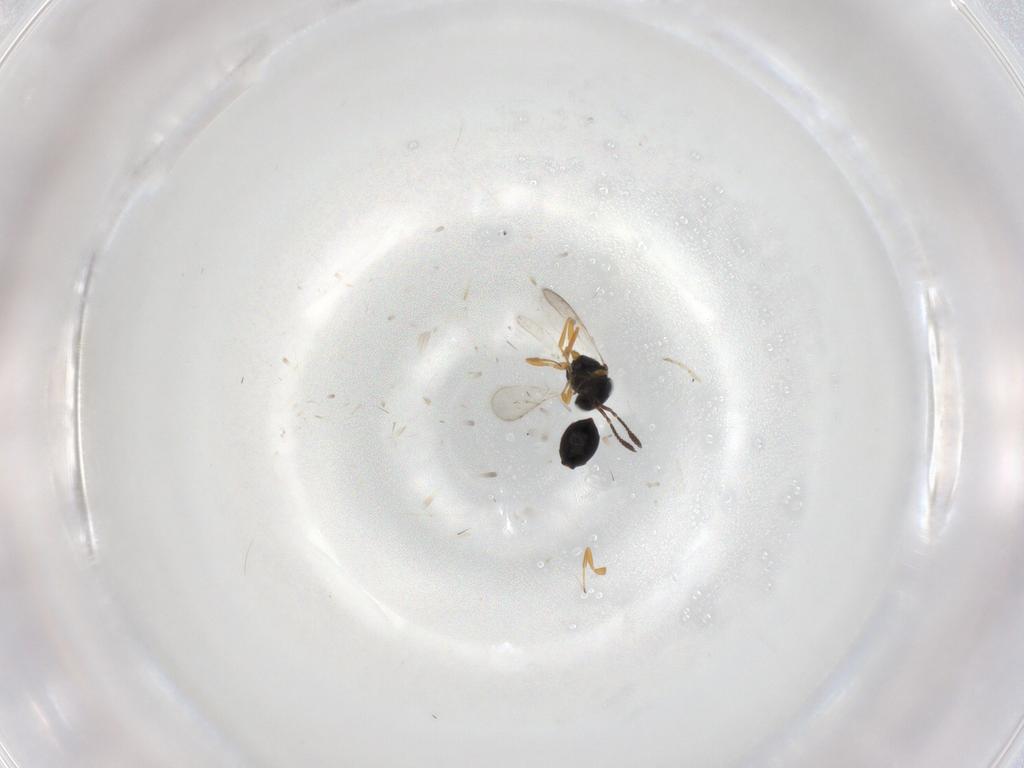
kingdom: Animalia
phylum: Arthropoda
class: Insecta
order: Hymenoptera
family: Scelionidae
